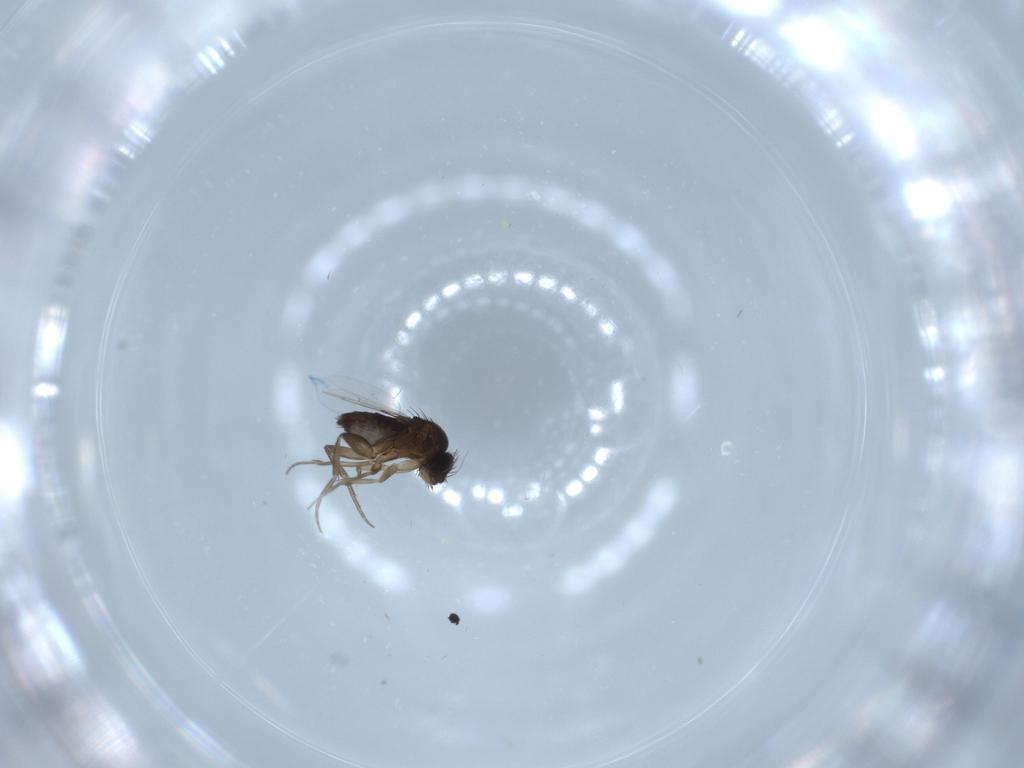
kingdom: Animalia
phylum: Arthropoda
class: Insecta
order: Diptera
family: Phoridae
